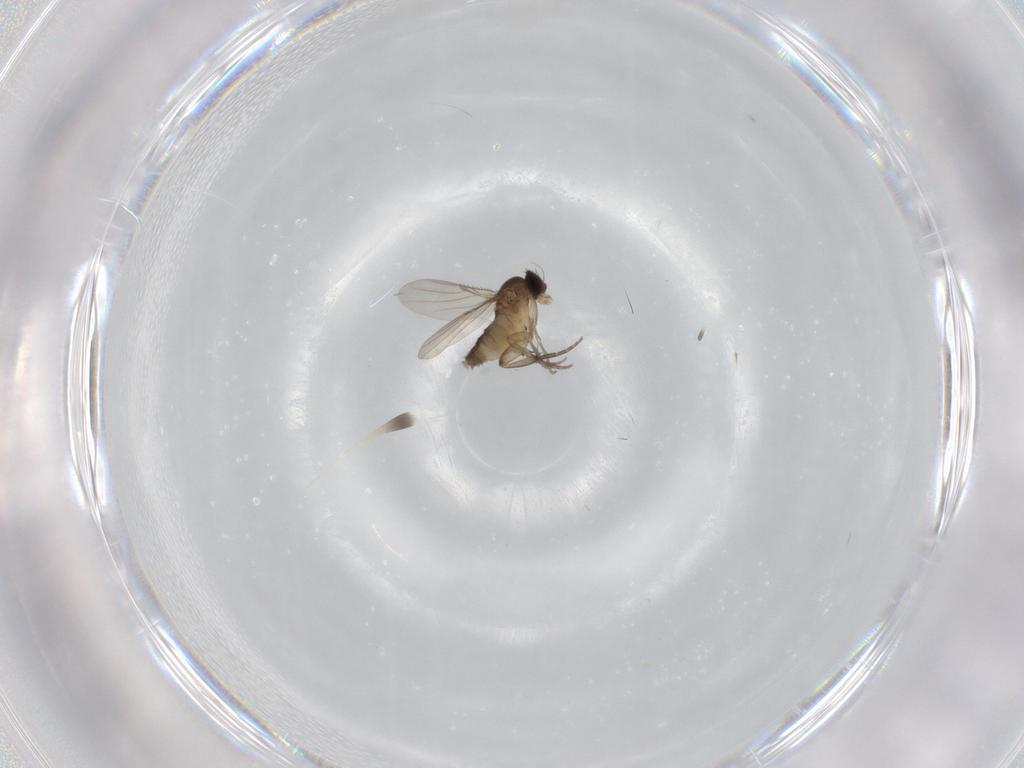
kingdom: Animalia
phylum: Arthropoda
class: Insecta
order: Diptera
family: Phoridae
